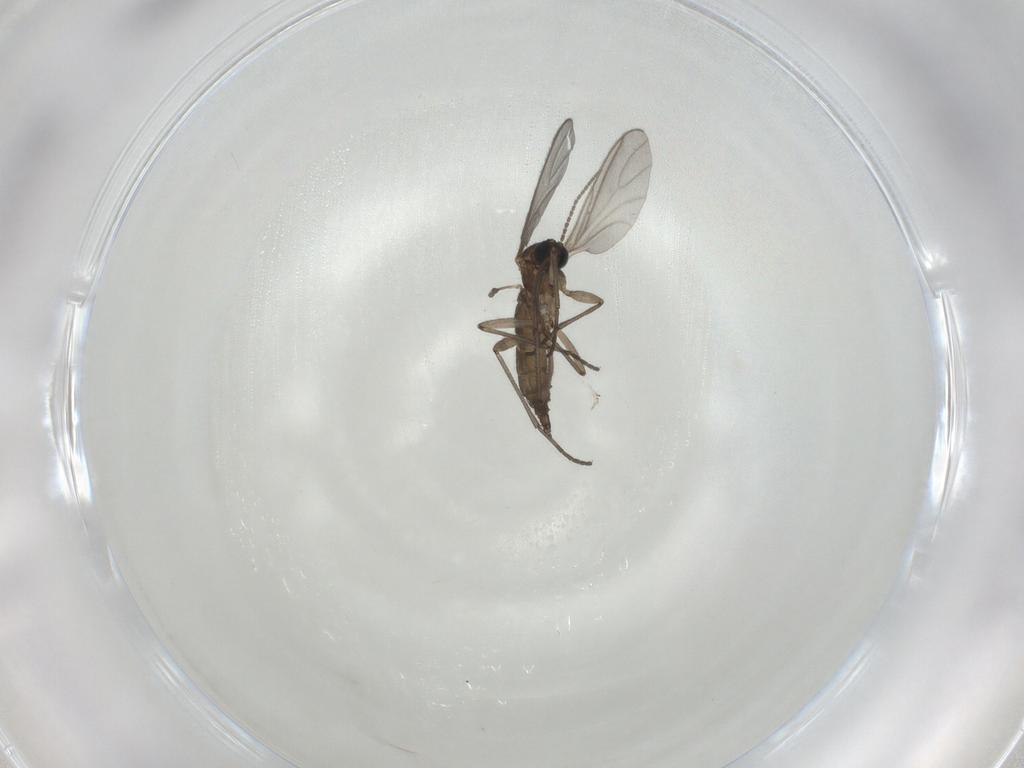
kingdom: Animalia
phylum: Arthropoda
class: Insecta
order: Diptera
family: Sciaridae
